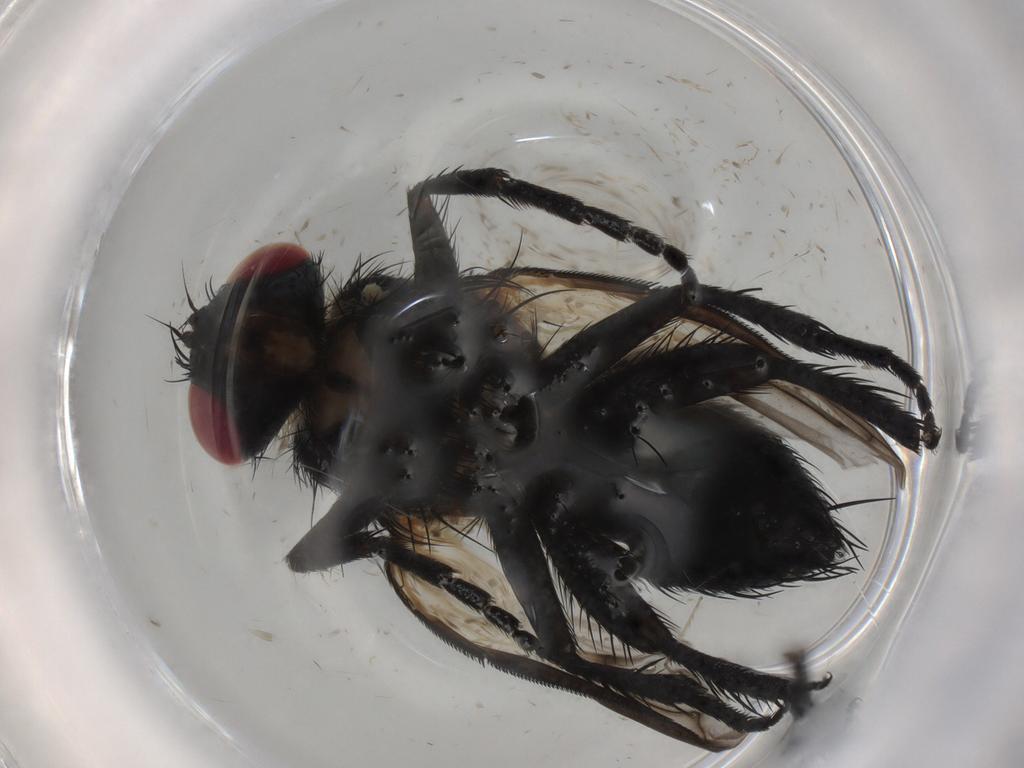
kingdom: Animalia
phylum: Arthropoda
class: Insecta
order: Diptera
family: Tachinidae
